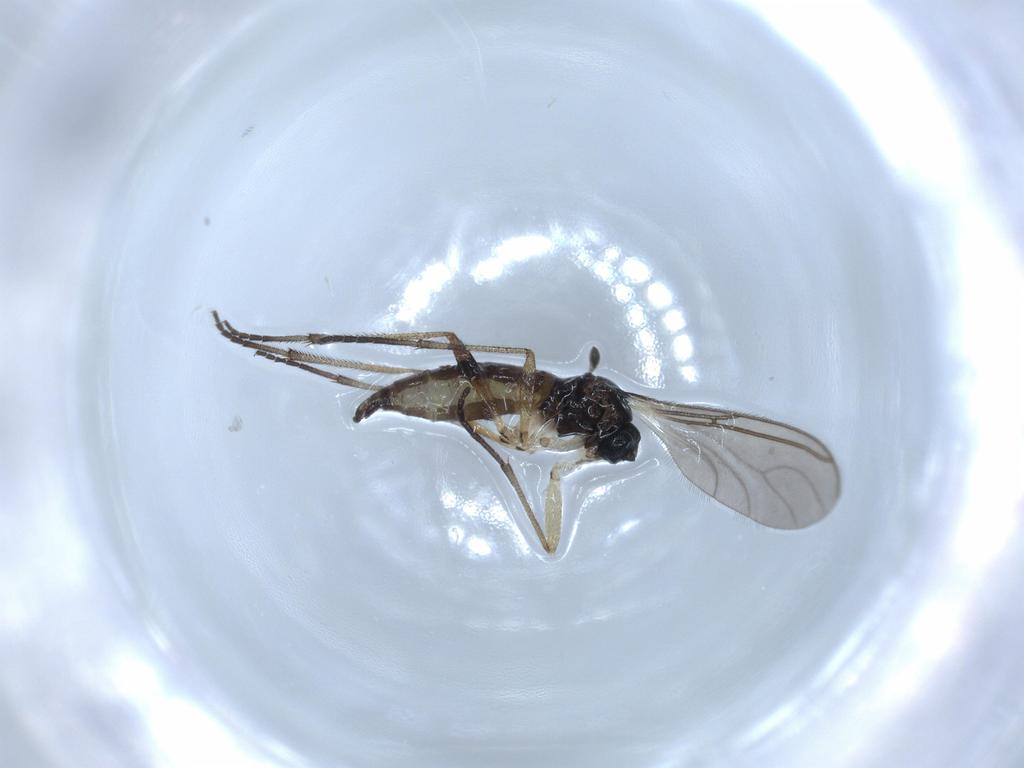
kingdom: Animalia
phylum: Arthropoda
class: Insecta
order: Diptera
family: Sciaridae
